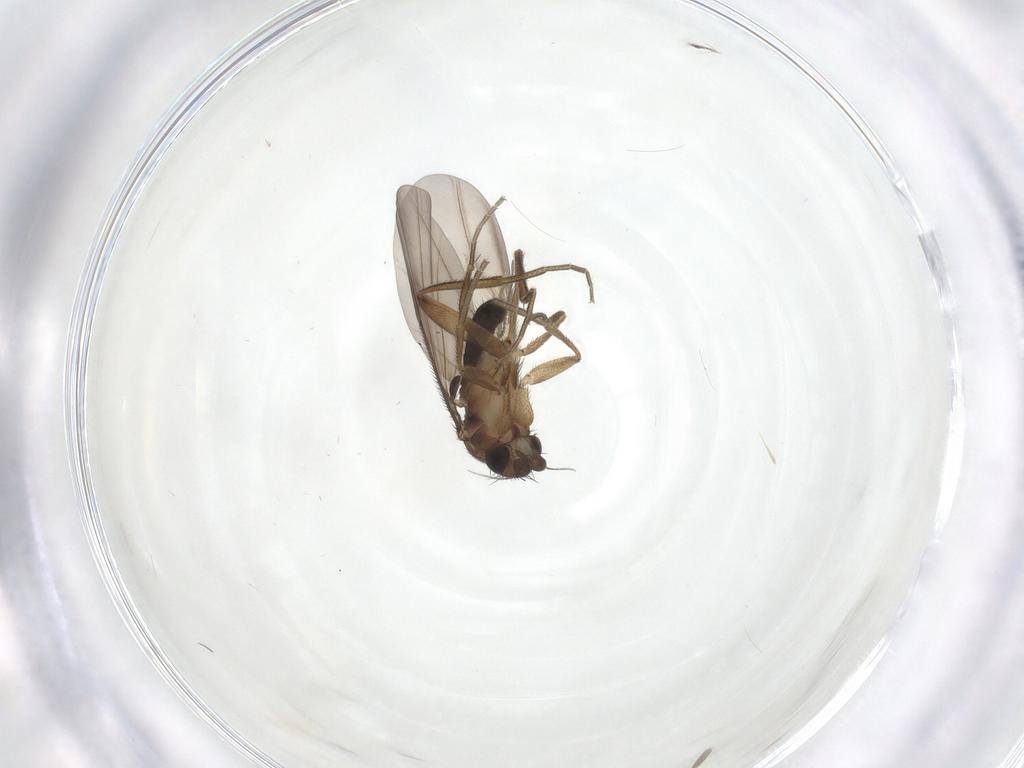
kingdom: Animalia
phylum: Arthropoda
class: Insecta
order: Diptera
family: Phoridae
